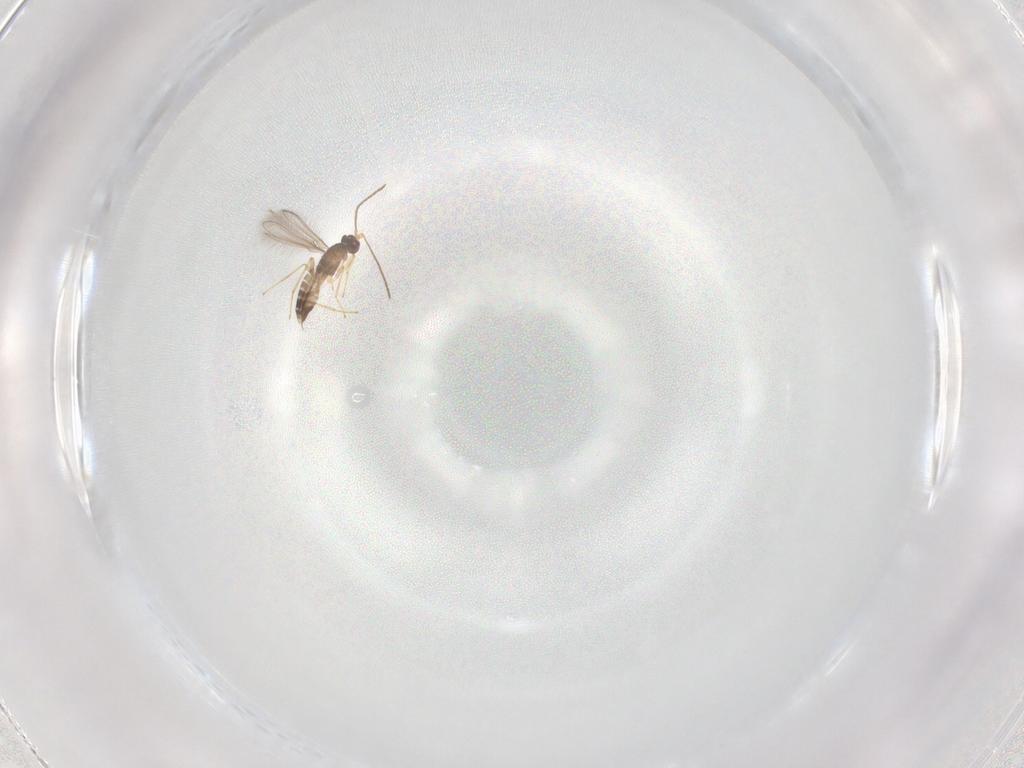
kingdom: Animalia
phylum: Arthropoda
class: Insecta
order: Hymenoptera
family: Mymaridae
